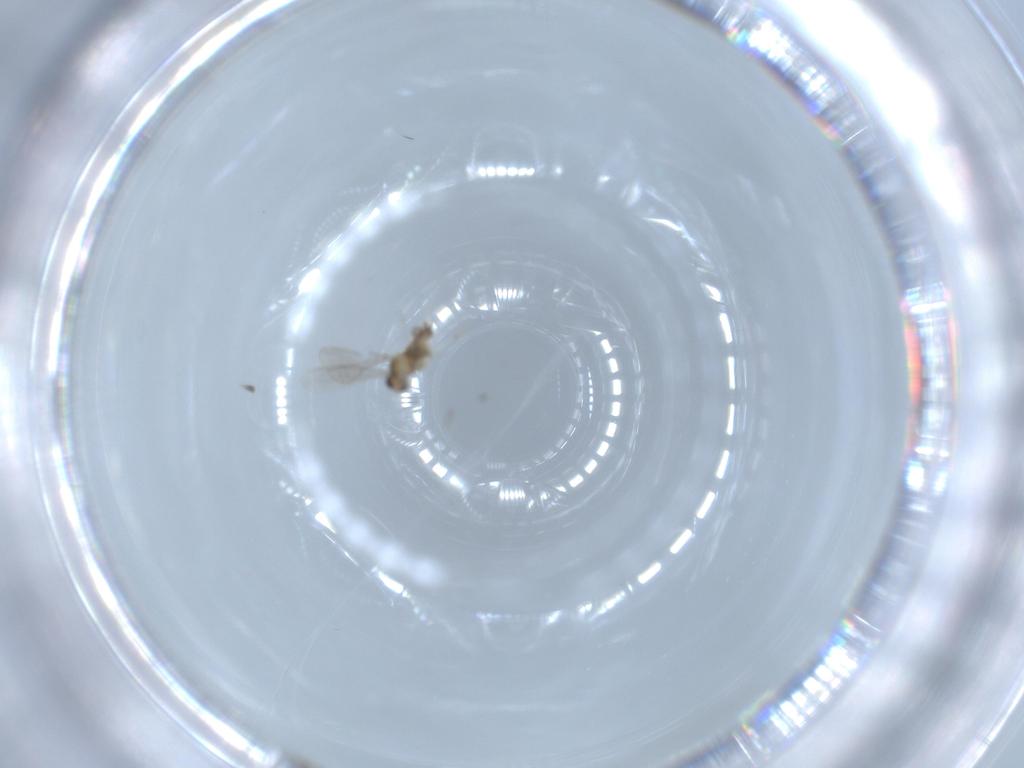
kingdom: Animalia
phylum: Arthropoda
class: Insecta
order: Diptera
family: Cecidomyiidae
